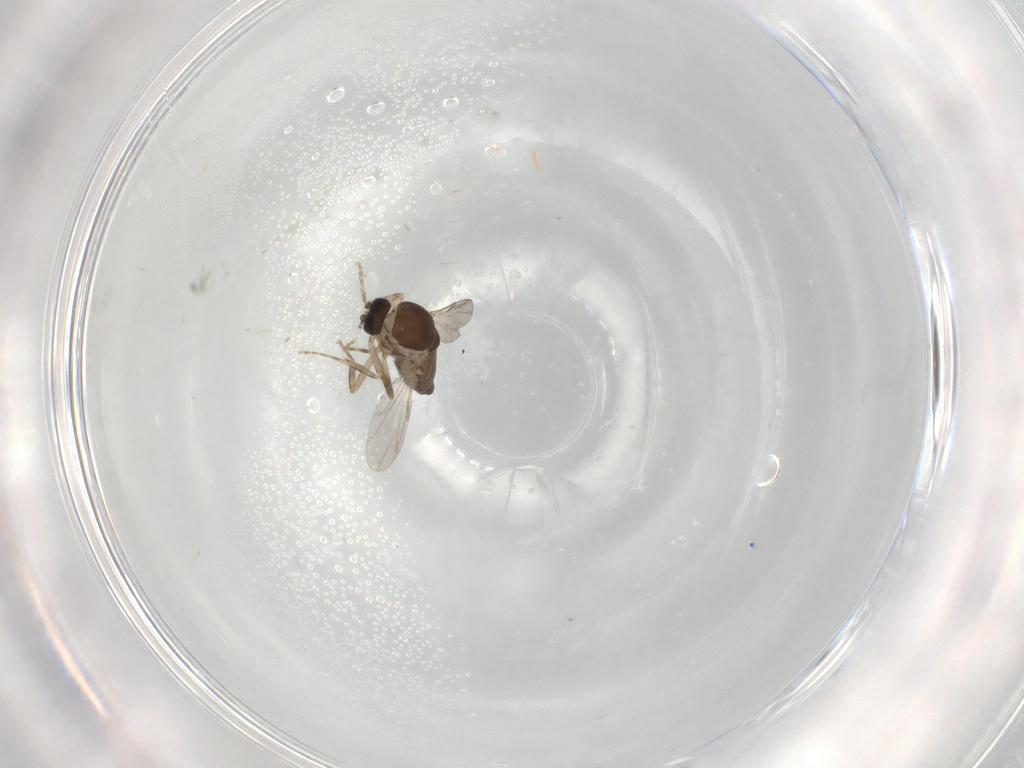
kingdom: Animalia
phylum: Arthropoda
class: Insecta
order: Diptera
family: Ceratopogonidae
